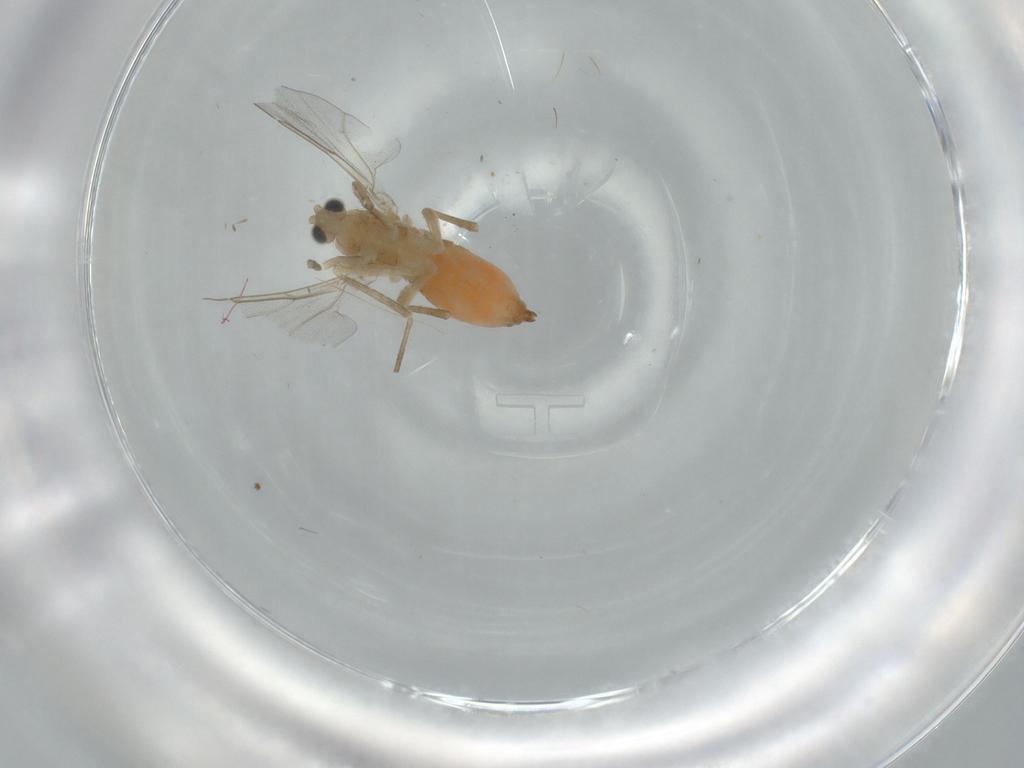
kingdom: Animalia
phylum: Arthropoda
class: Insecta
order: Diptera
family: Cecidomyiidae
